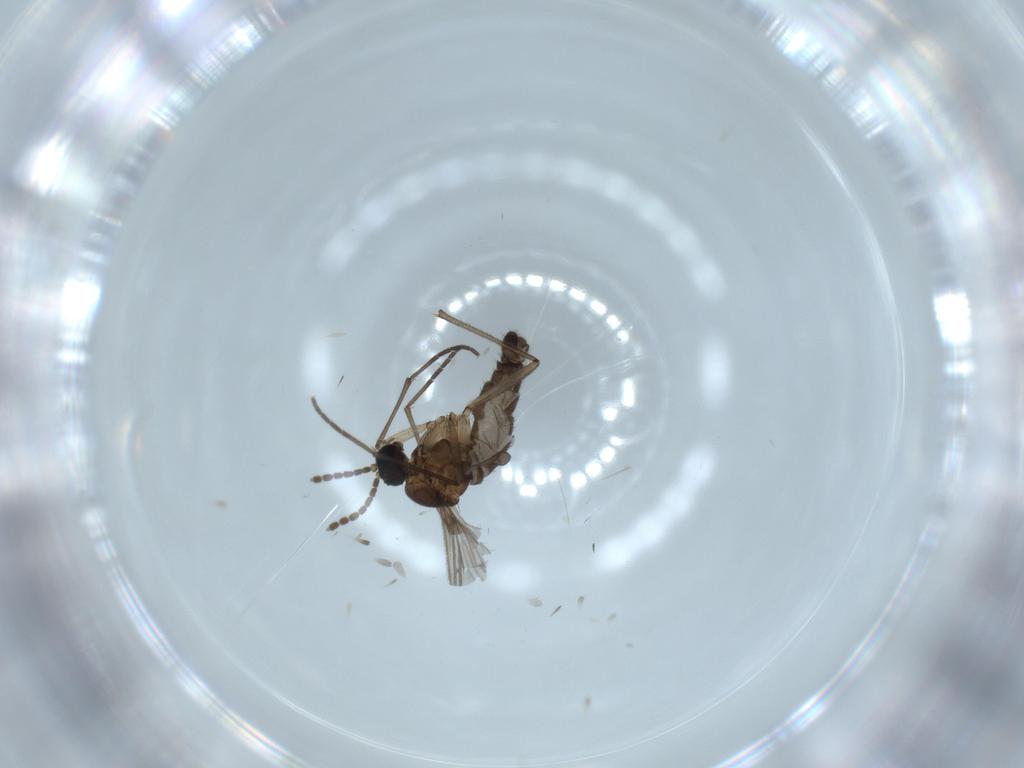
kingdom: Animalia
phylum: Arthropoda
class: Insecta
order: Diptera
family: Sciaridae
